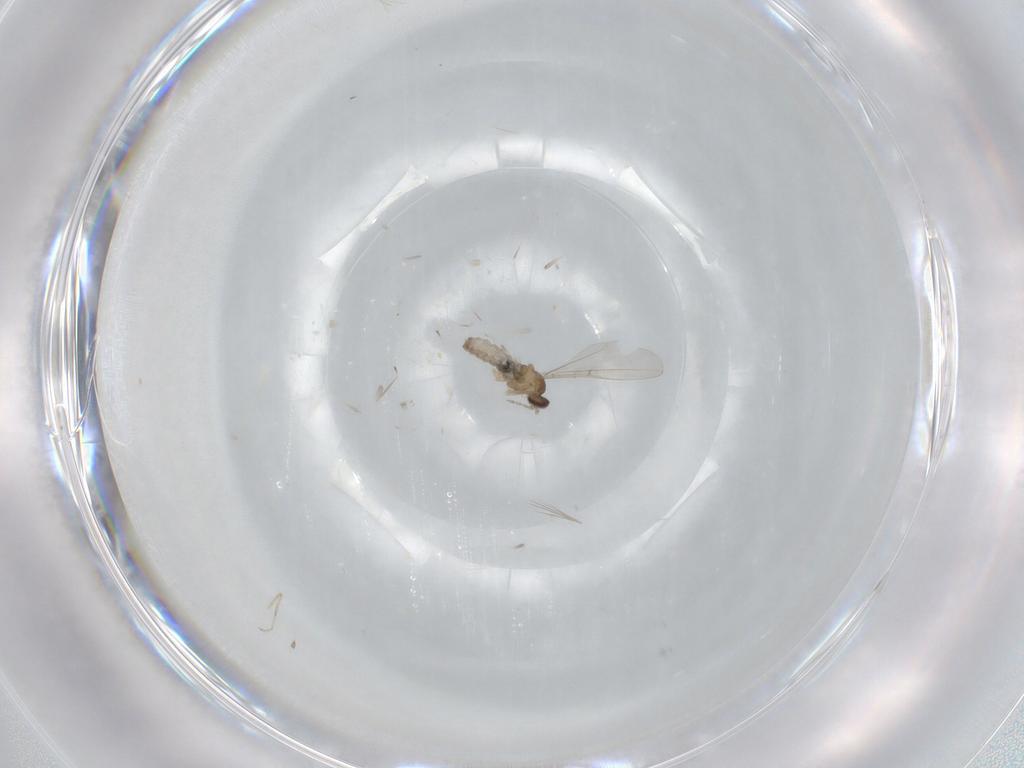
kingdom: Animalia
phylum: Arthropoda
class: Insecta
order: Diptera
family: Cecidomyiidae
